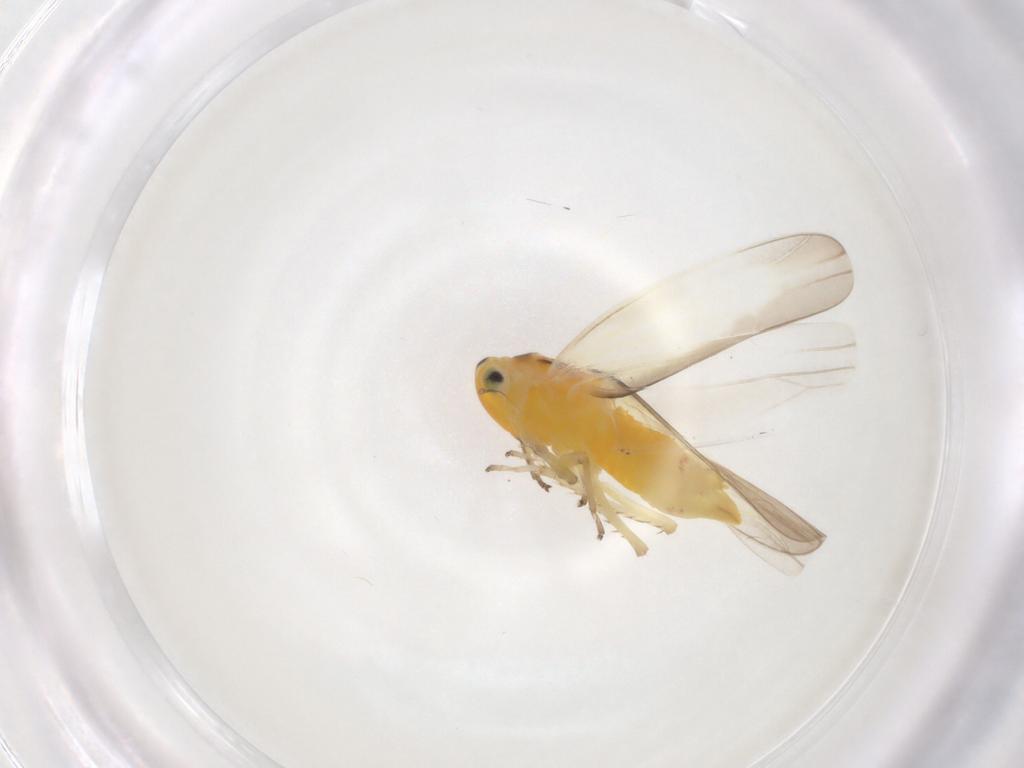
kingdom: Animalia
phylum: Arthropoda
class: Insecta
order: Hemiptera
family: Cicadellidae
